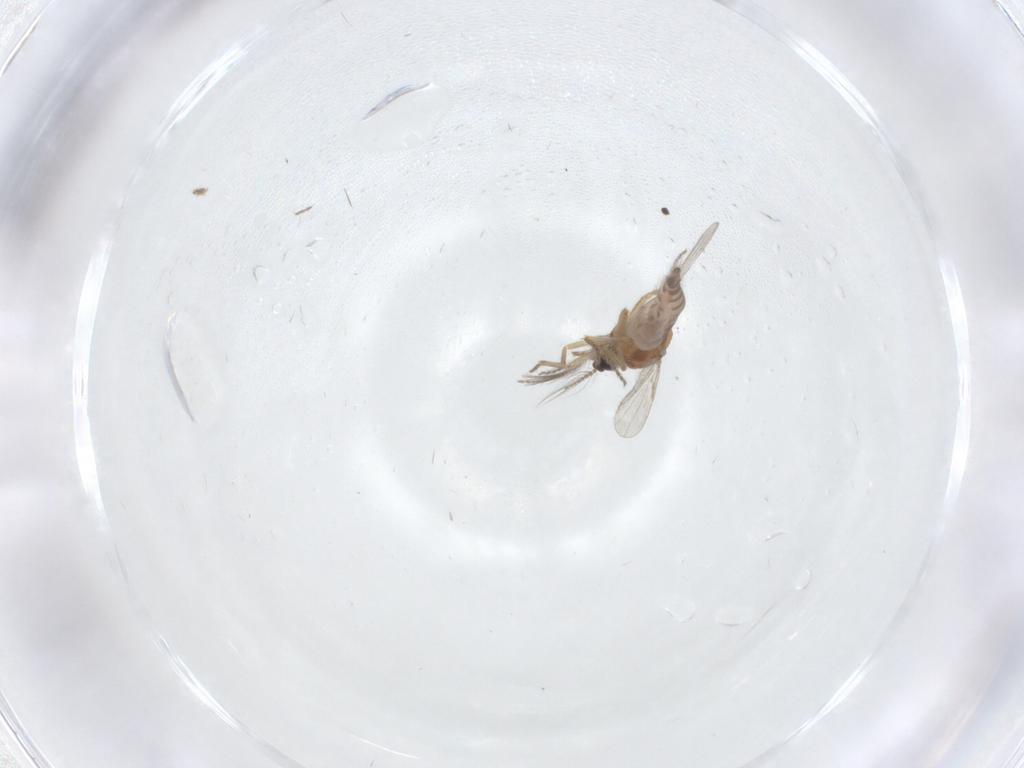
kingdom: Animalia
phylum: Arthropoda
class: Insecta
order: Diptera
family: Ceratopogonidae
